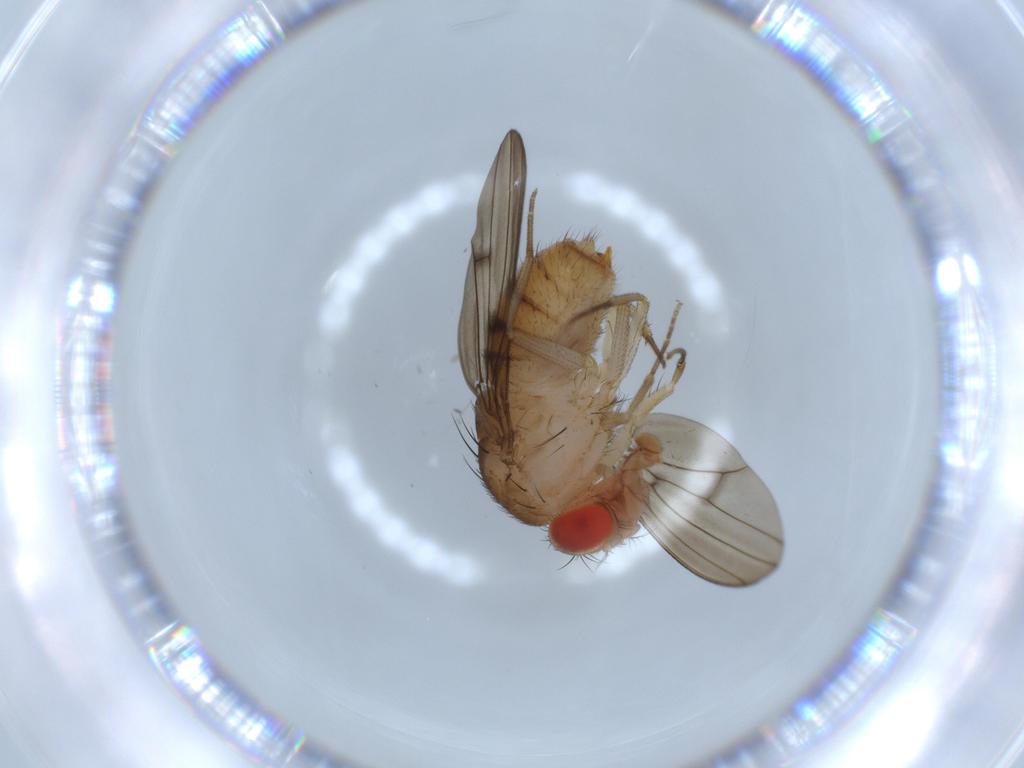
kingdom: Animalia
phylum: Arthropoda
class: Insecta
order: Diptera
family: Drosophilidae
